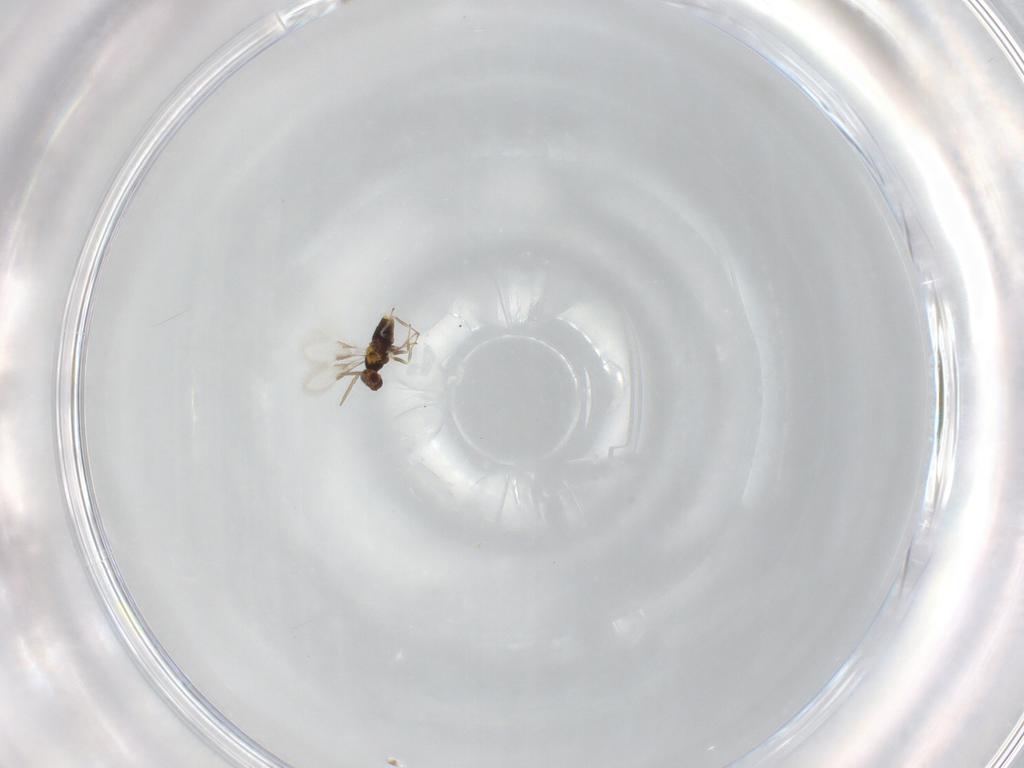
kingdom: Animalia
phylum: Arthropoda
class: Insecta
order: Hymenoptera
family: Aphelinidae
